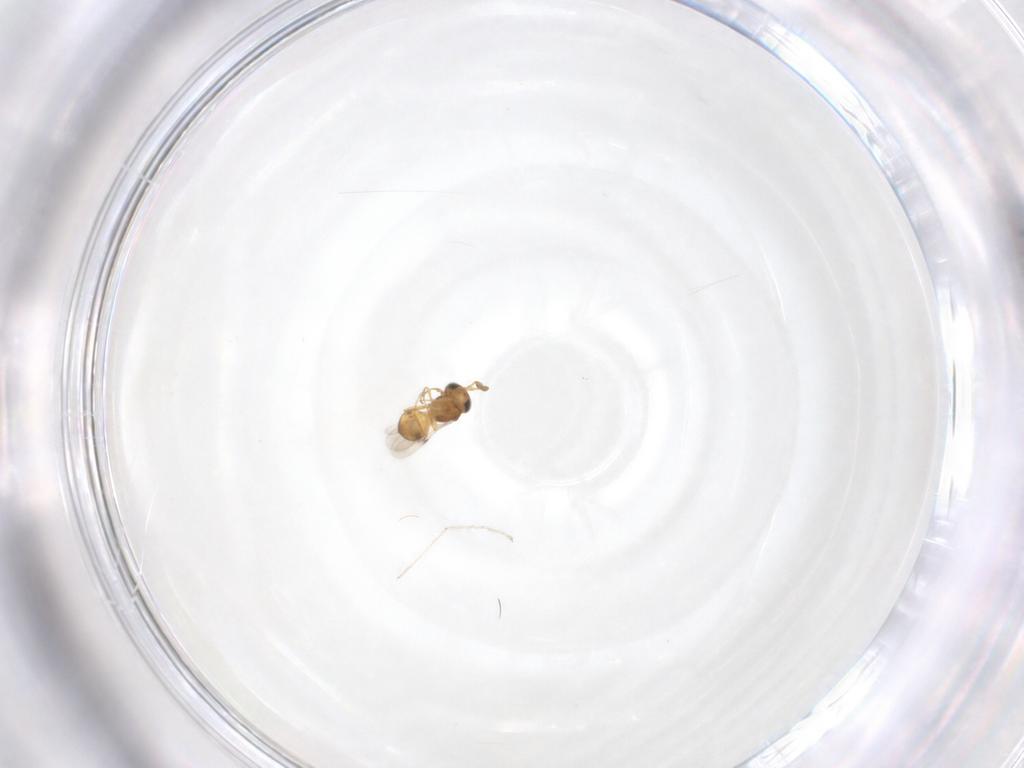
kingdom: Animalia
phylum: Arthropoda
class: Insecta
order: Hymenoptera
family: Scelionidae
